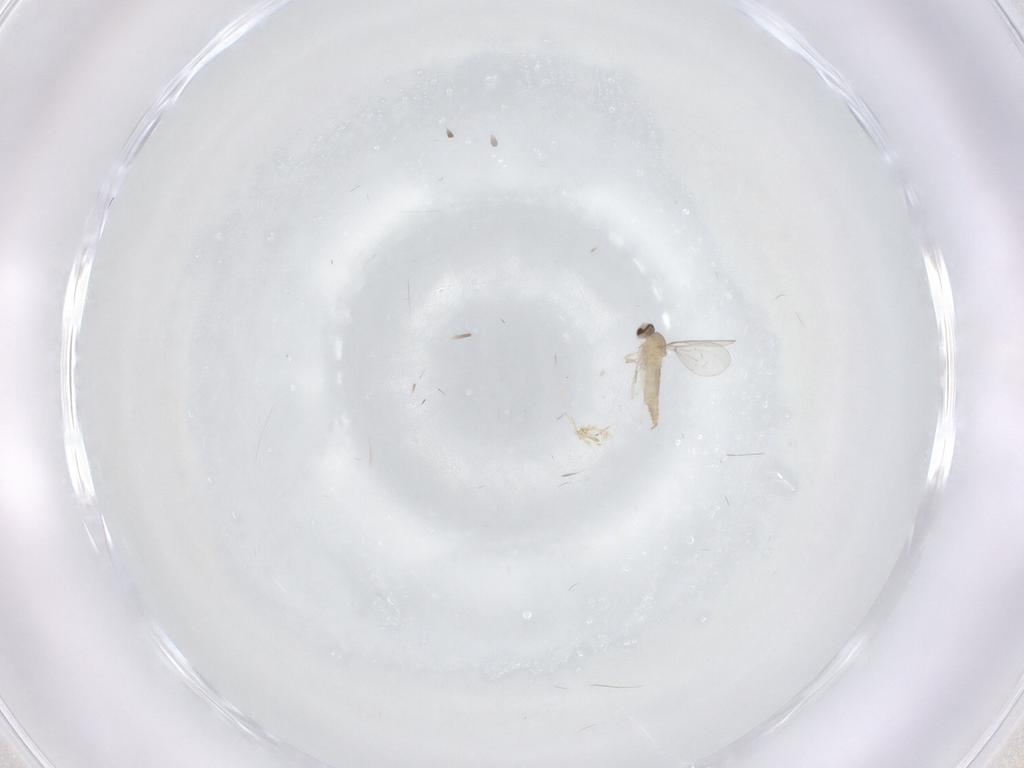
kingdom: Animalia
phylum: Arthropoda
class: Insecta
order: Diptera
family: Cecidomyiidae
